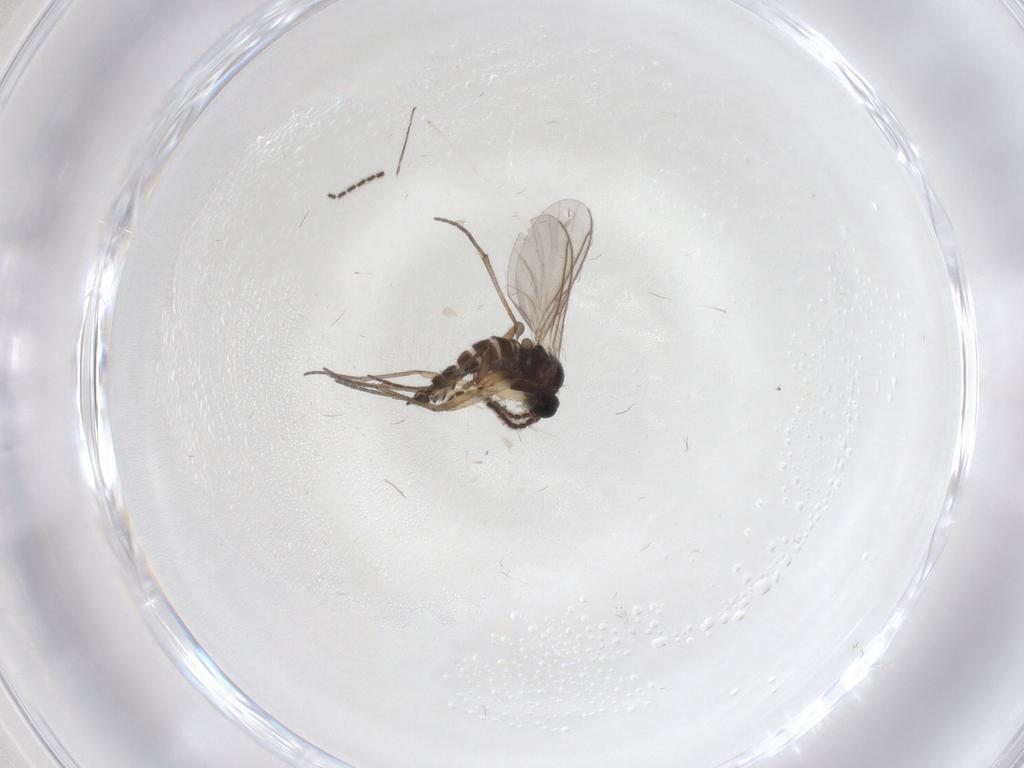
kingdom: Animalia
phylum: Arthropoda
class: Insecta
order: Diptera
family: Sciaridae
